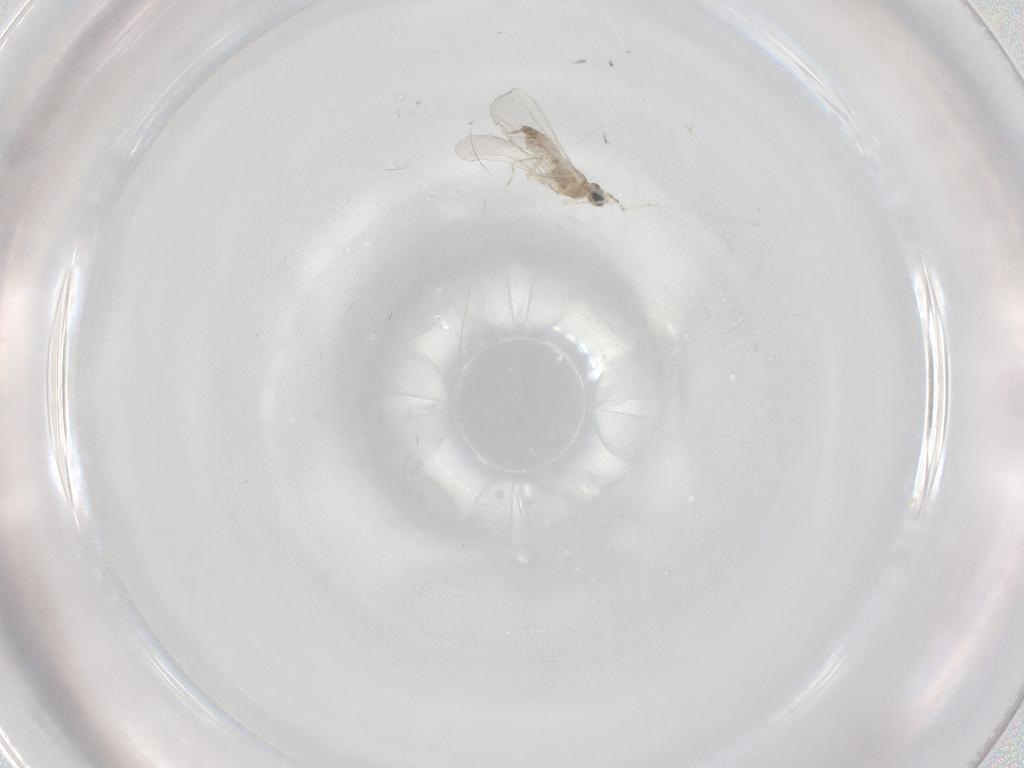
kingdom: Animalia
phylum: Arthropoda
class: Insecta
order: Diptera
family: Cecidomyiidae
